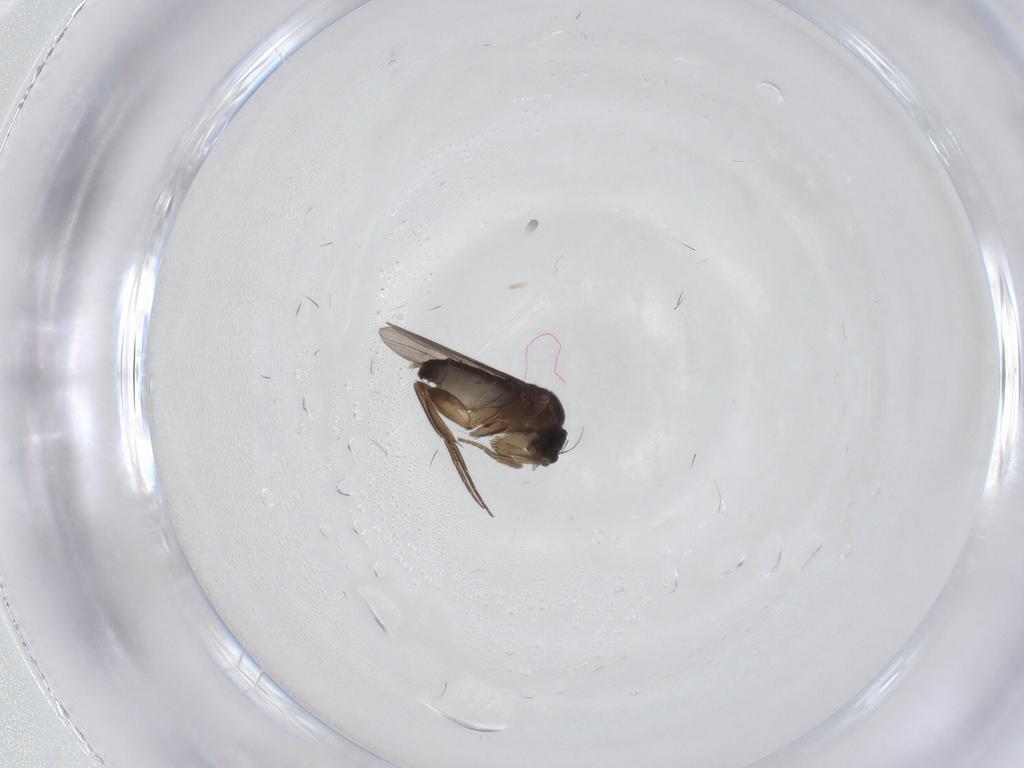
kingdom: Animalia
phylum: Arthropoda
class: Insecta
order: Diptera
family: Phoridae
